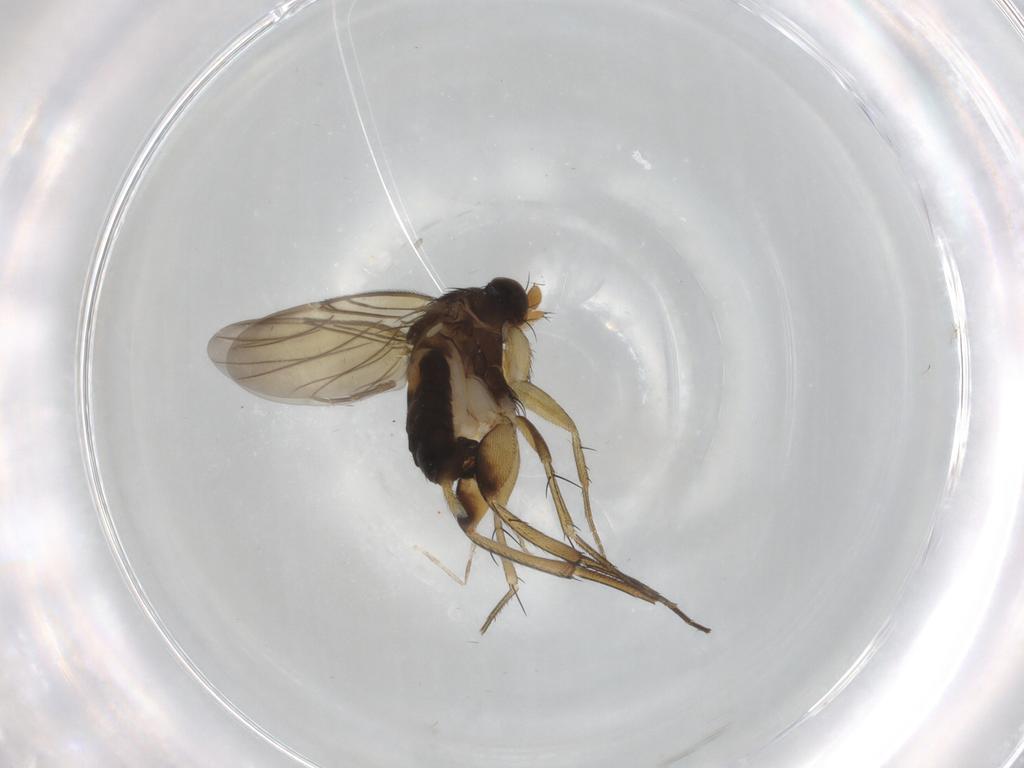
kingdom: Animalia
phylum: Arthropoda
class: Insecta
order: Diptera
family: Phoridae
